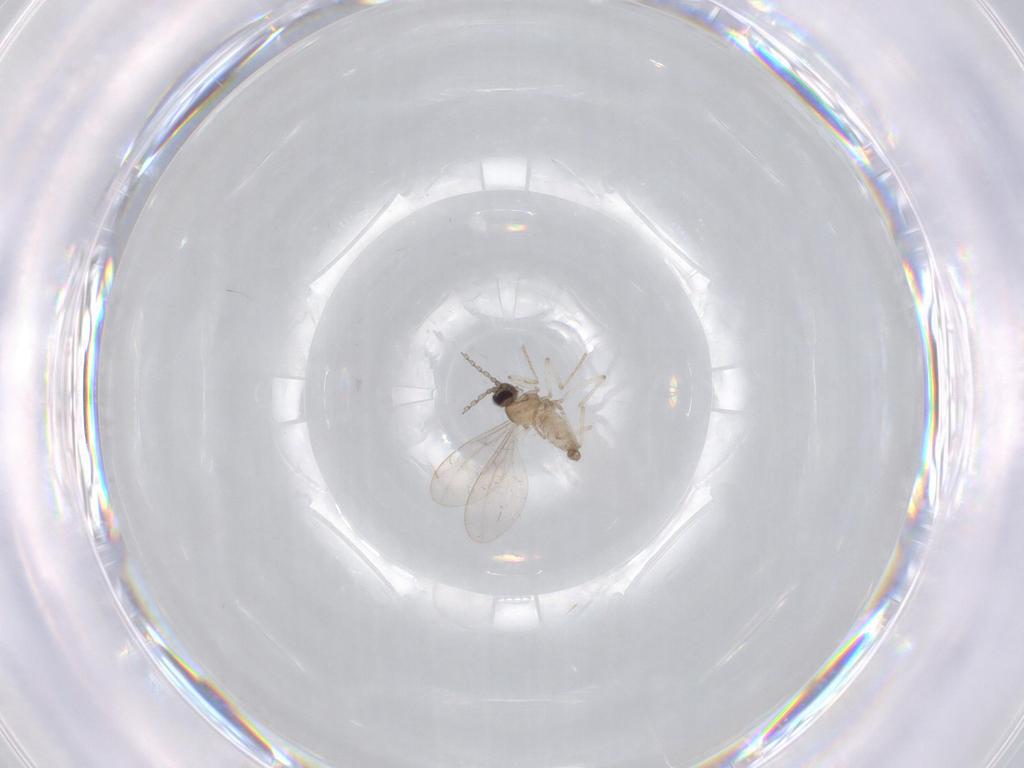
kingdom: Animalia
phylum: Arthropoda
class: Insecta
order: Diptera
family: Cecidomyiidae
